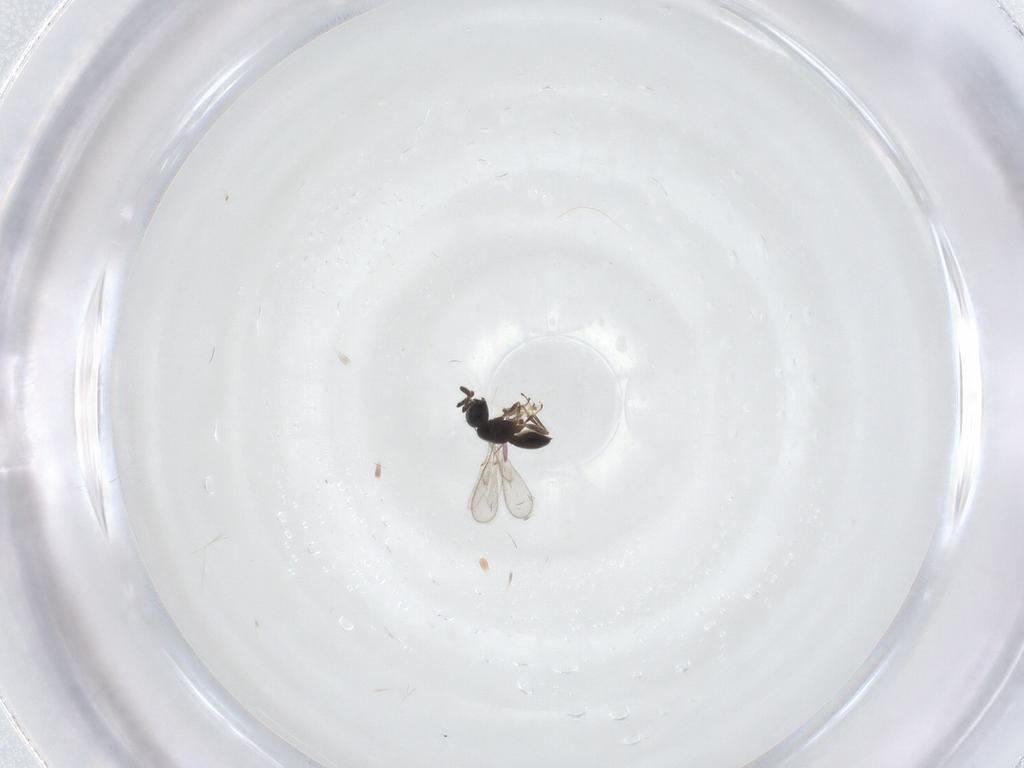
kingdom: Animalia
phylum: Arthropoda
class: Insecta
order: Hymenoptera
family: Scelionidae
